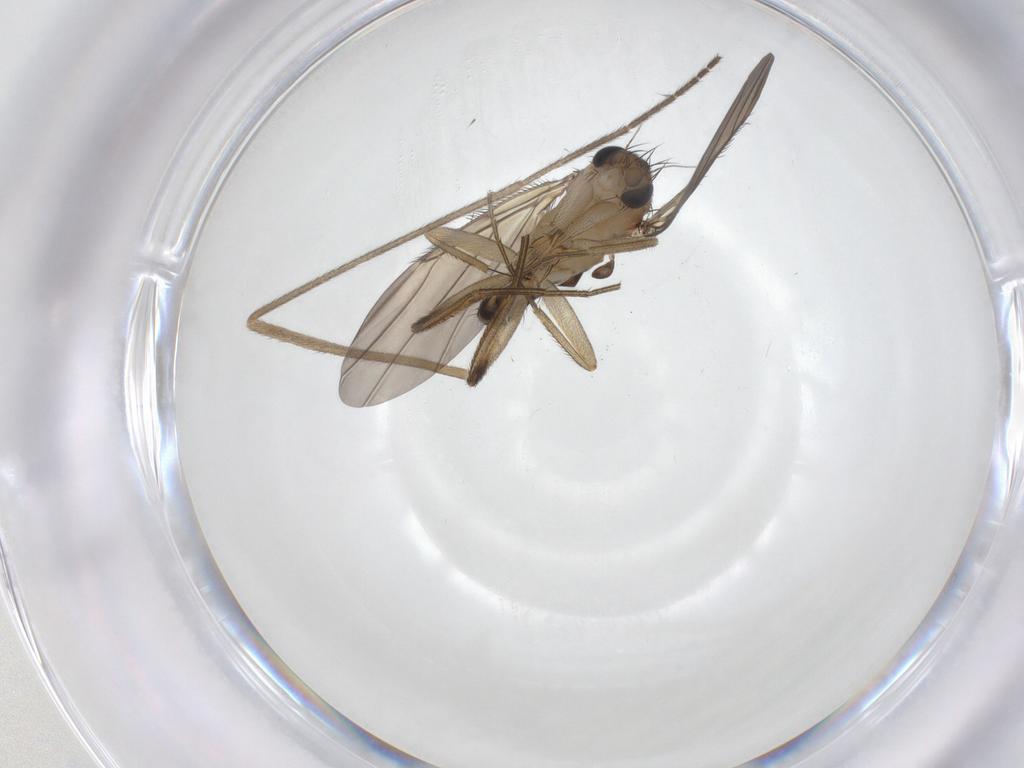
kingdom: Animalia
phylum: Arthropoda
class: Insecta
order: Diptera
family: Phoridae
